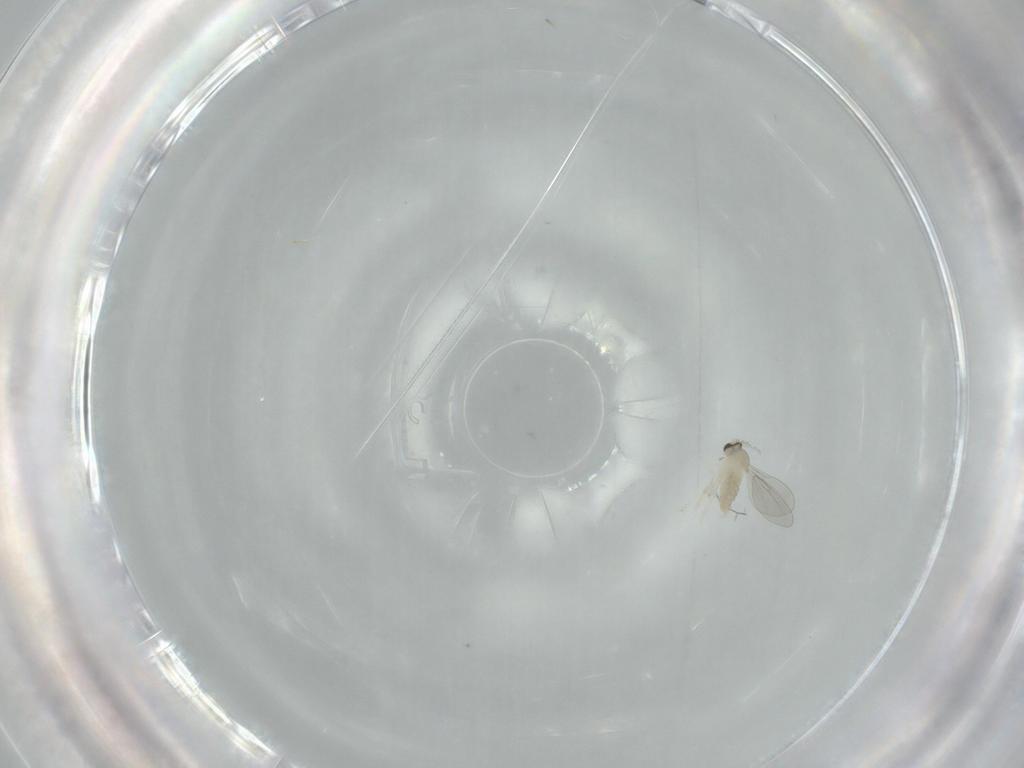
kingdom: Animalia
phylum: Arthropoda
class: Insecta
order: Diptera
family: Cecidomyiidae
